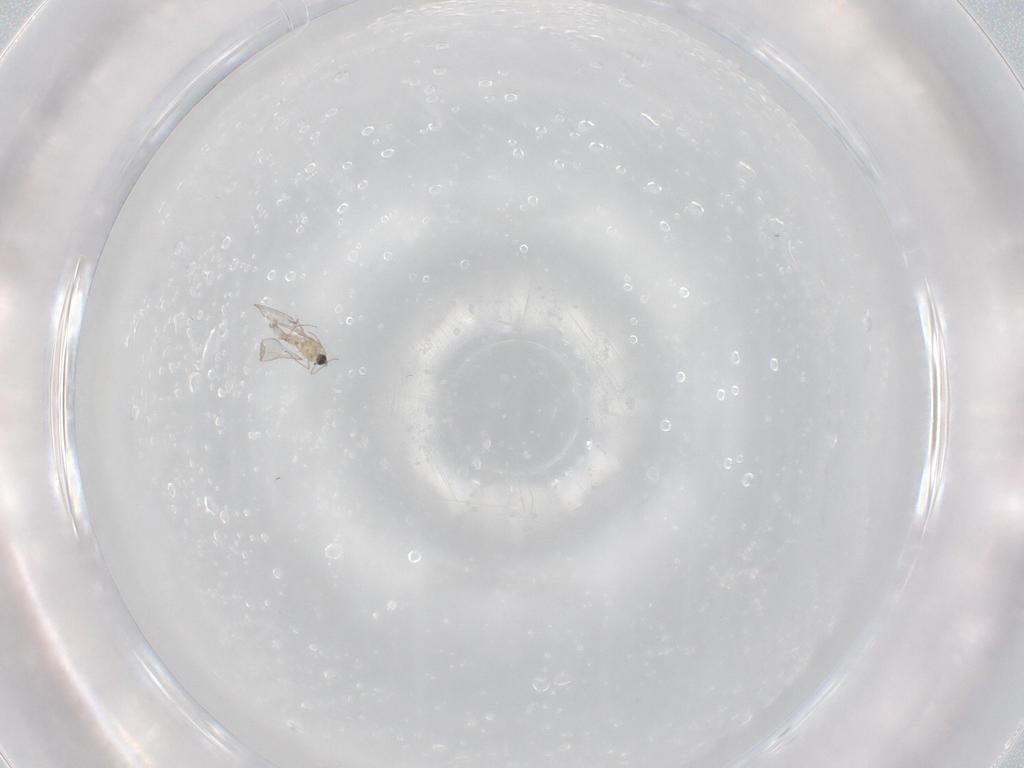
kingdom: Animalia
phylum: Arthropoda
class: Insecta
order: Diptera
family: Cecidomyiidae
